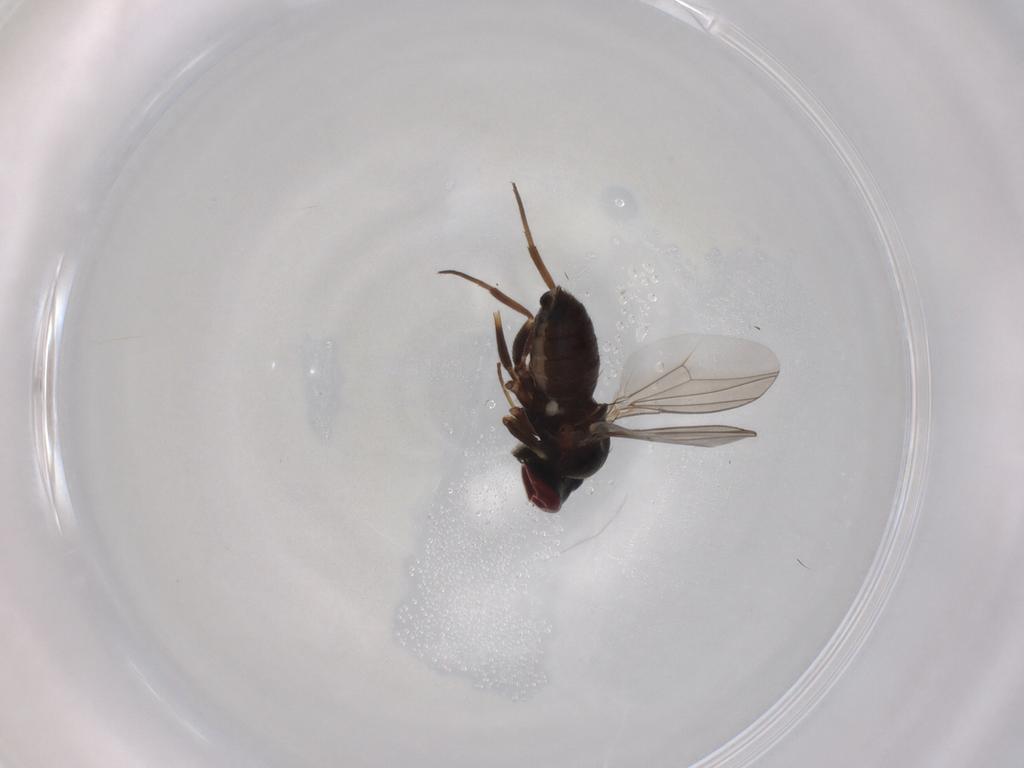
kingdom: Animalia
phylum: Arthropoda
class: Insecta
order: Diptera
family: Dolichopodidae
